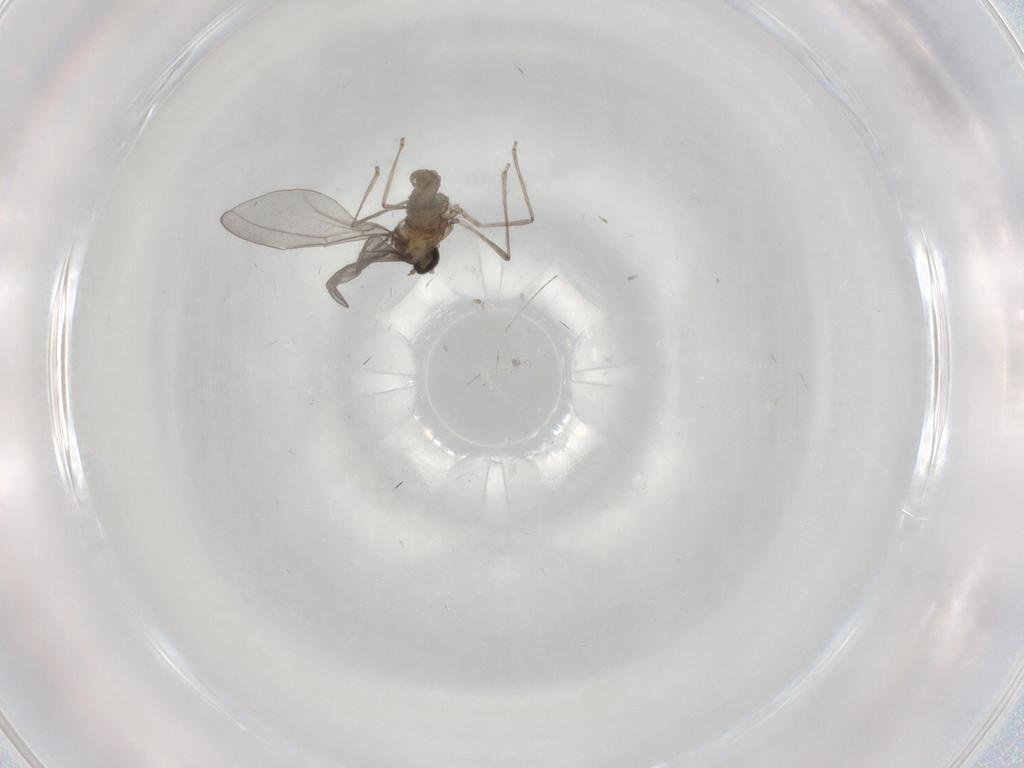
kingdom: Animalia
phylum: Arthropoda
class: Insecta
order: Diptera
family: Cecidomyiidae
